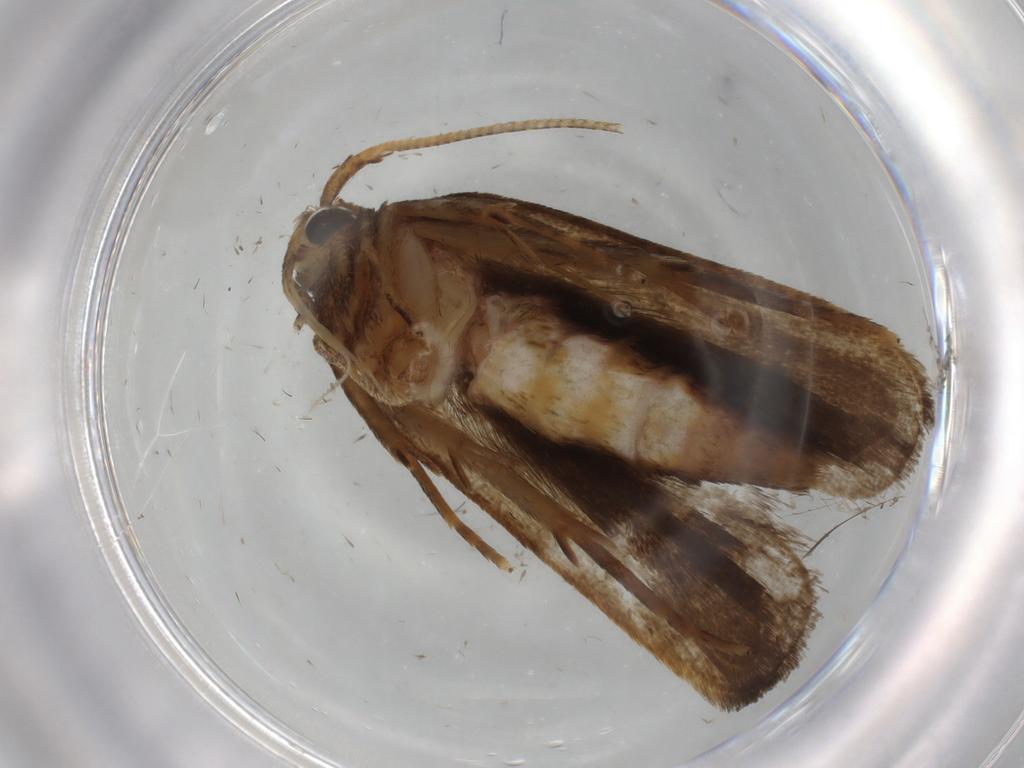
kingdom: Animalia
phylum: Arthropoda
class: Insecta
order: Lepidoptera
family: Autostichidae
